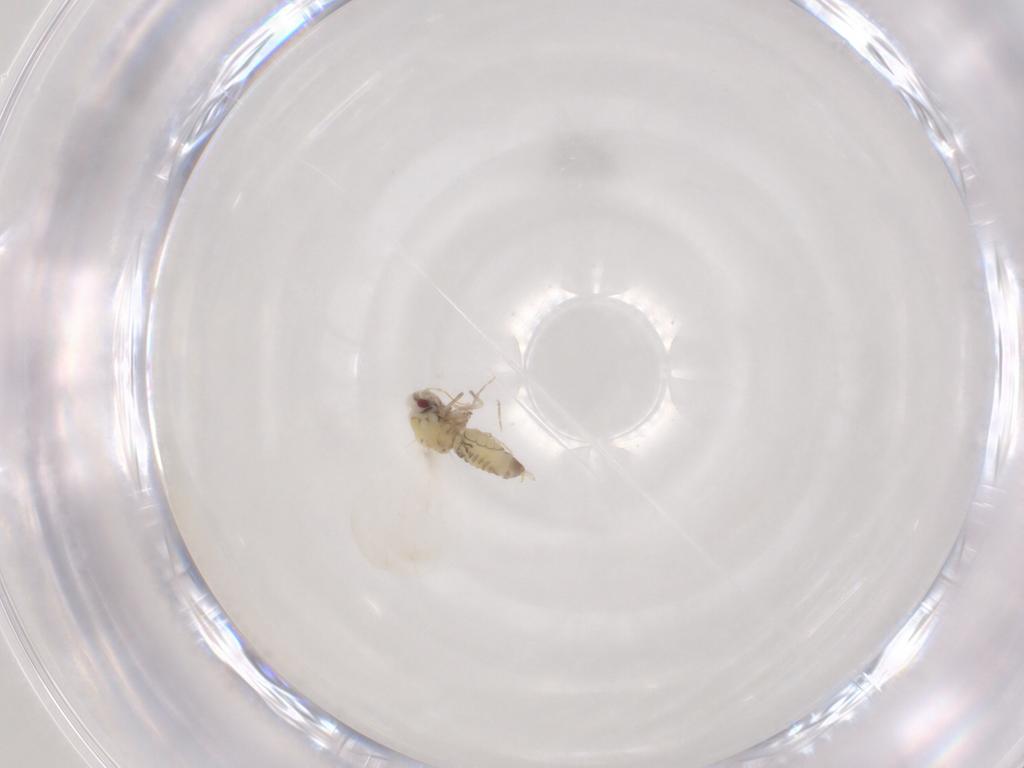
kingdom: Animalia
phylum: Arthropoda
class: Insecta
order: Hemiptera
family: Aleyrodidae
